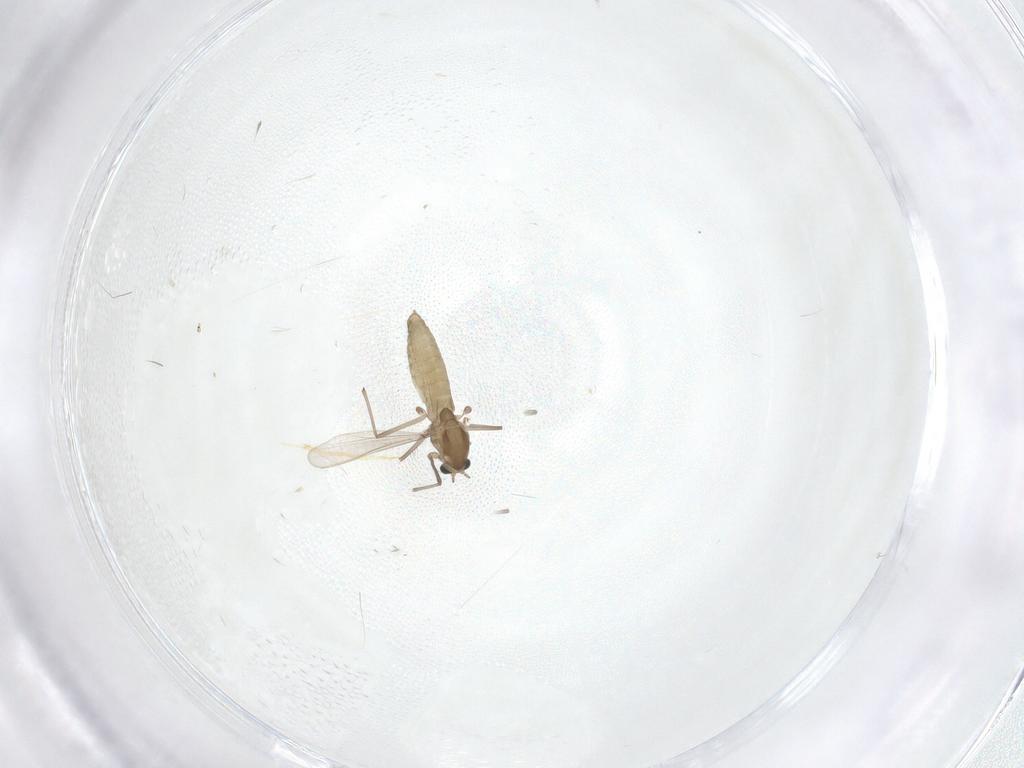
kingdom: Animalia
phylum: Arthropoda
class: Insecta
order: Diptera
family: Chironomidae
